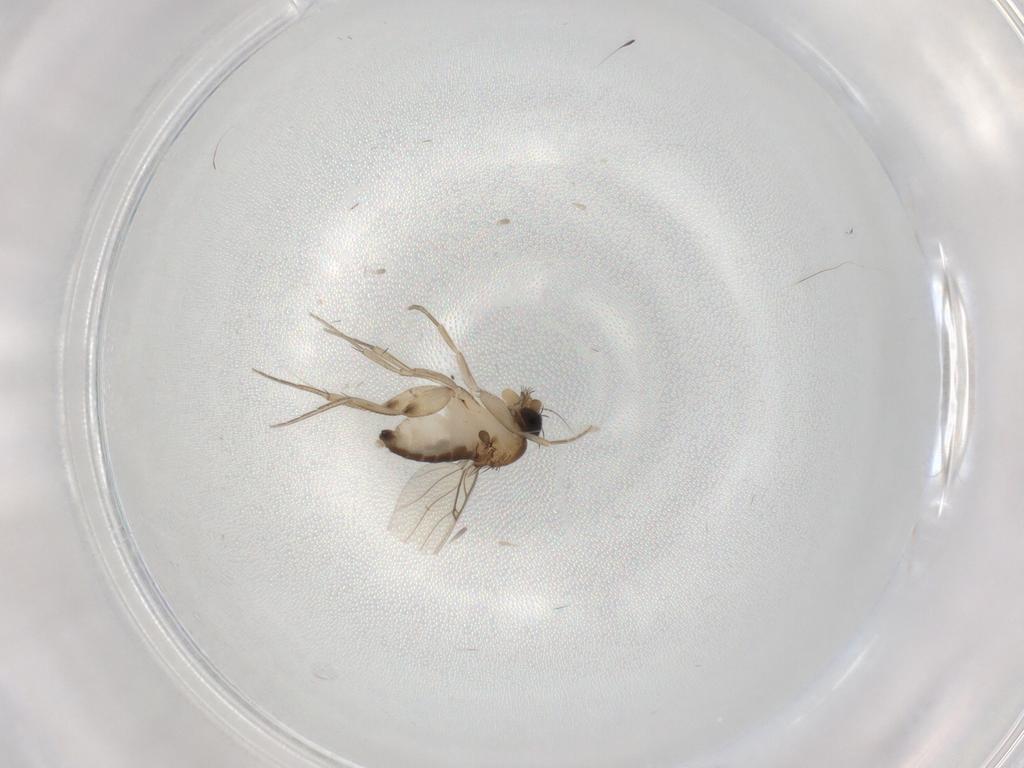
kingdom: Animalia
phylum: Arthropoda
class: Insecta
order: Diptera
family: Phoridae
